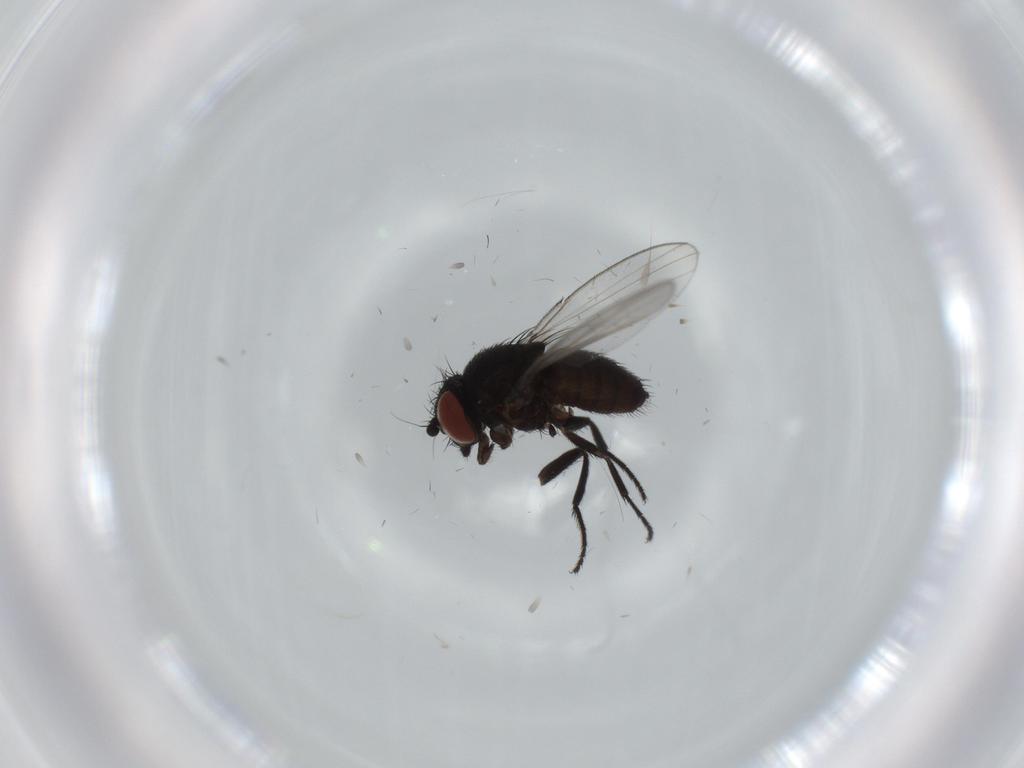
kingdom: Animalia
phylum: Arthropoda
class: Insecta
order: Diptera
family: Milichiidae
